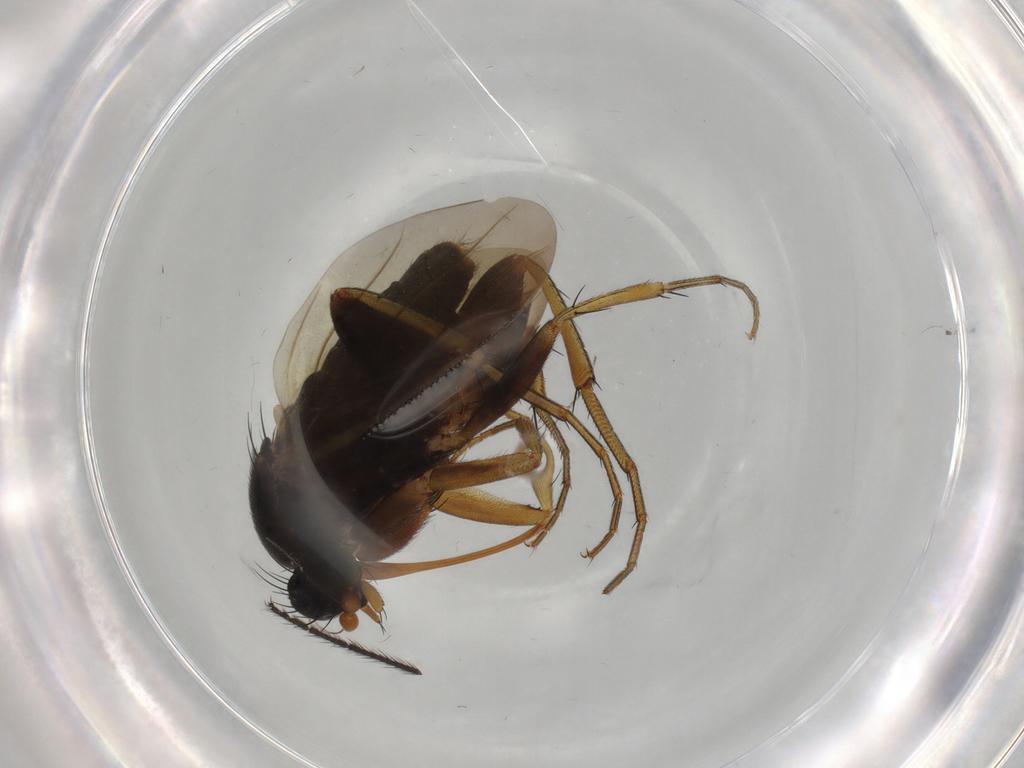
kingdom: Animalia
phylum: Arthropoda
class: Insecta
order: Diptera
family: Phoridae
